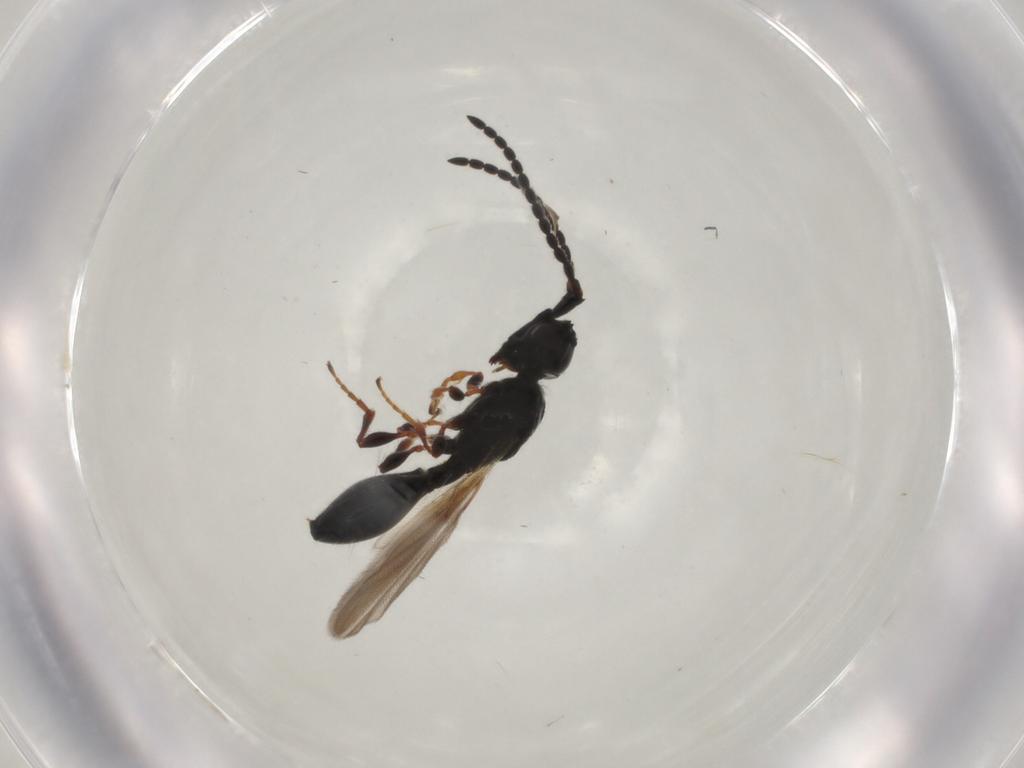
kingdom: Animalia
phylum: Arthropoda
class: Insecta
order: Hymenoptera
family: Diapriidae
